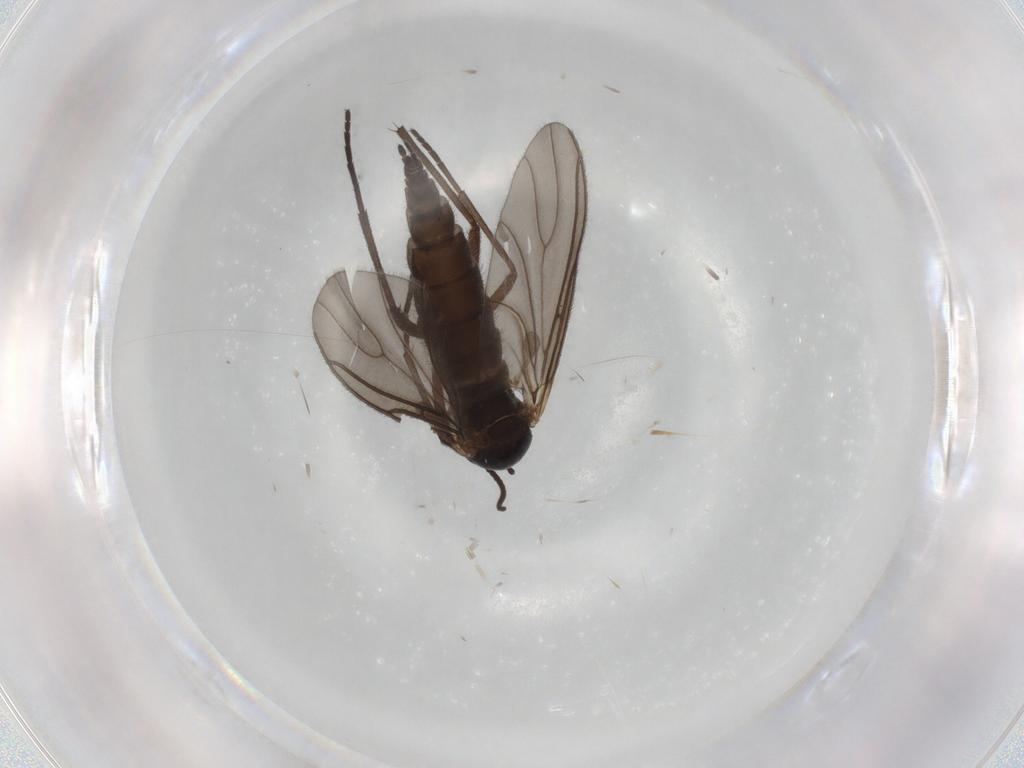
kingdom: Animalia
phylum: Arthropoda
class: Insecta
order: Diptera
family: Sciaridae
